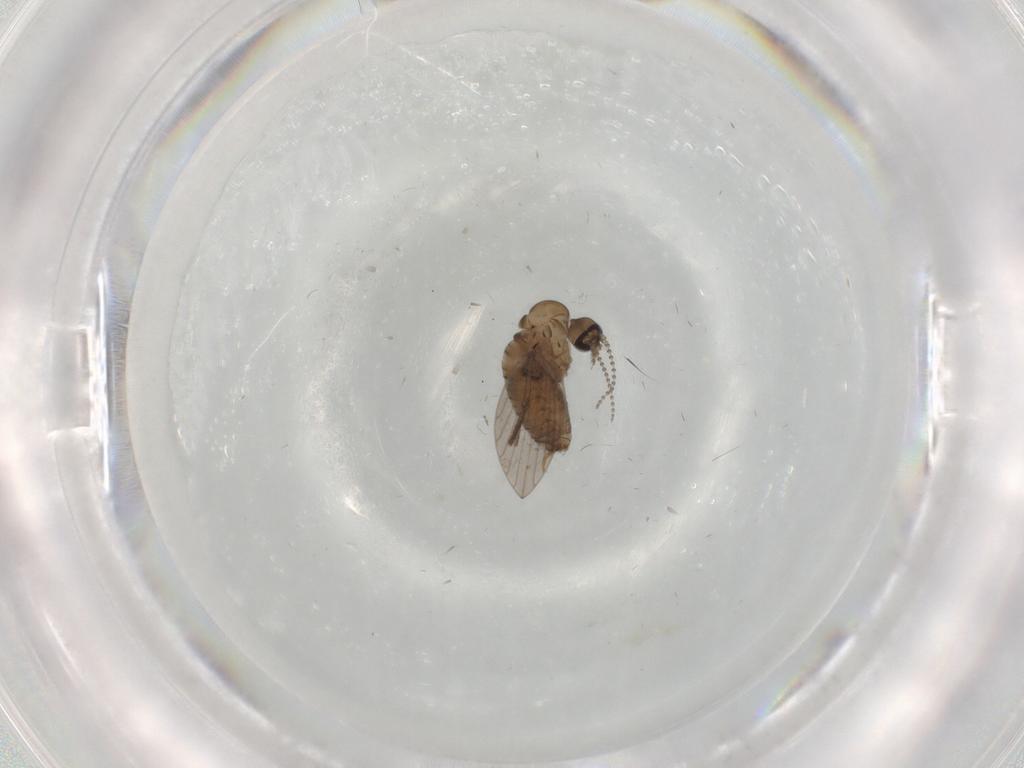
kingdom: Animalia
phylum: Arthropoda
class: Insecta
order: Diptera
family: Psychodidae
